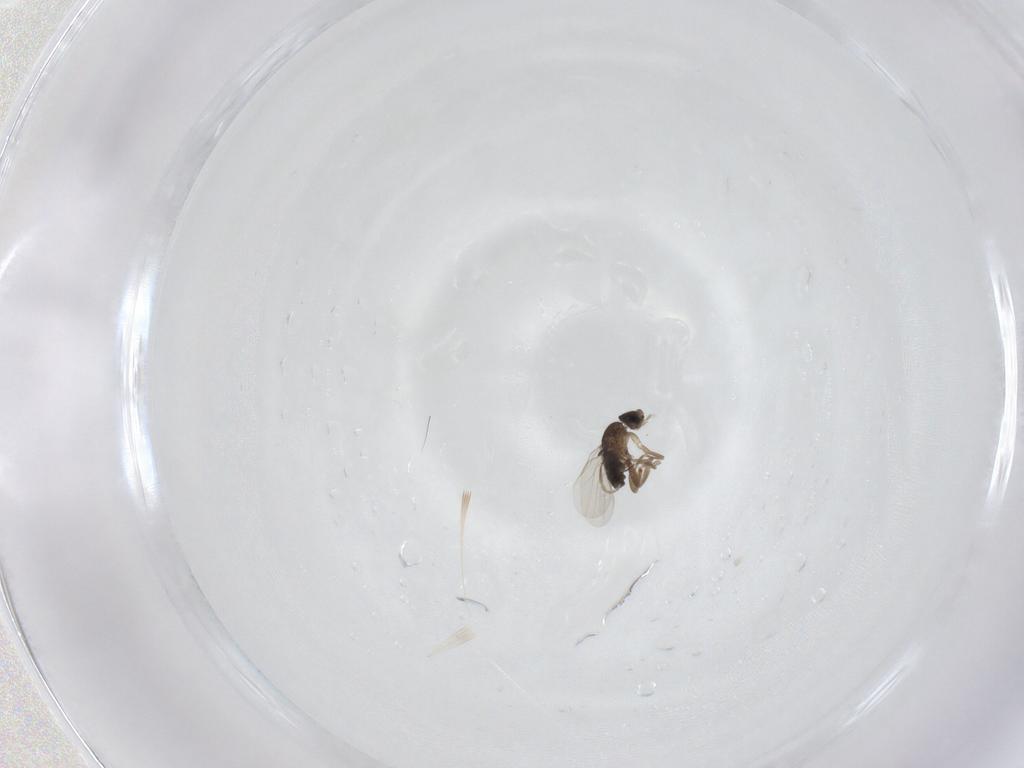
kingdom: Animalia
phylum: Arthropoda
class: Insecta
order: Diptera
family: Phoridae
